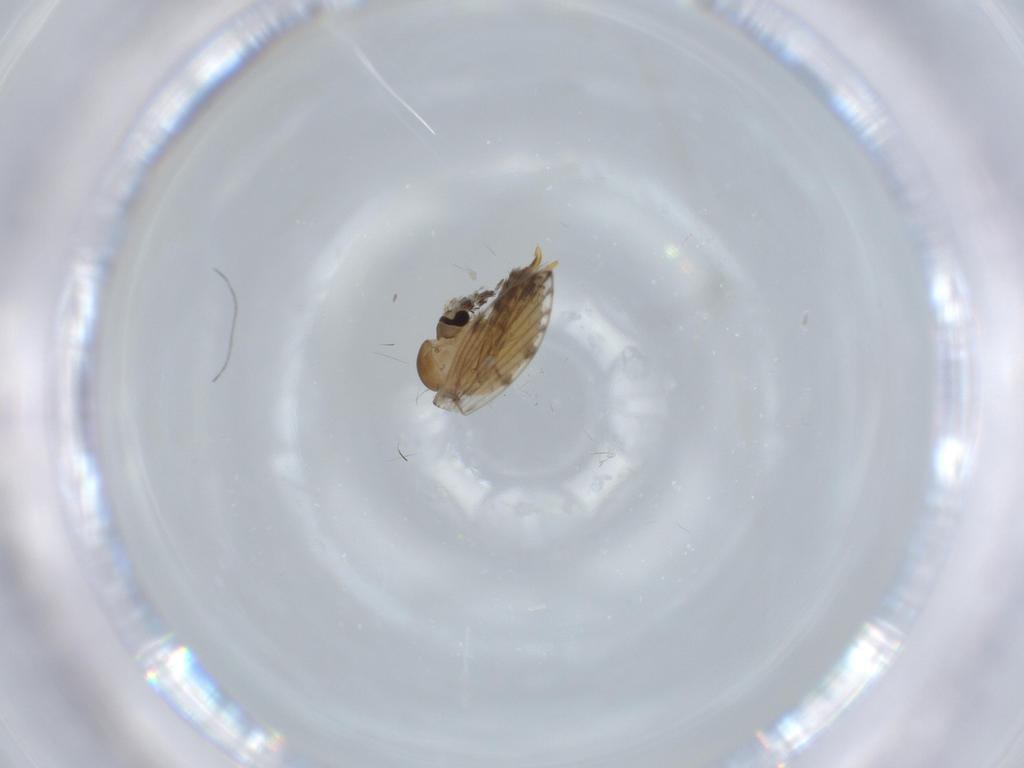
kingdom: Animalia
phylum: Arthropoda
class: Insecta
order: Diptera
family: Psychodidae
